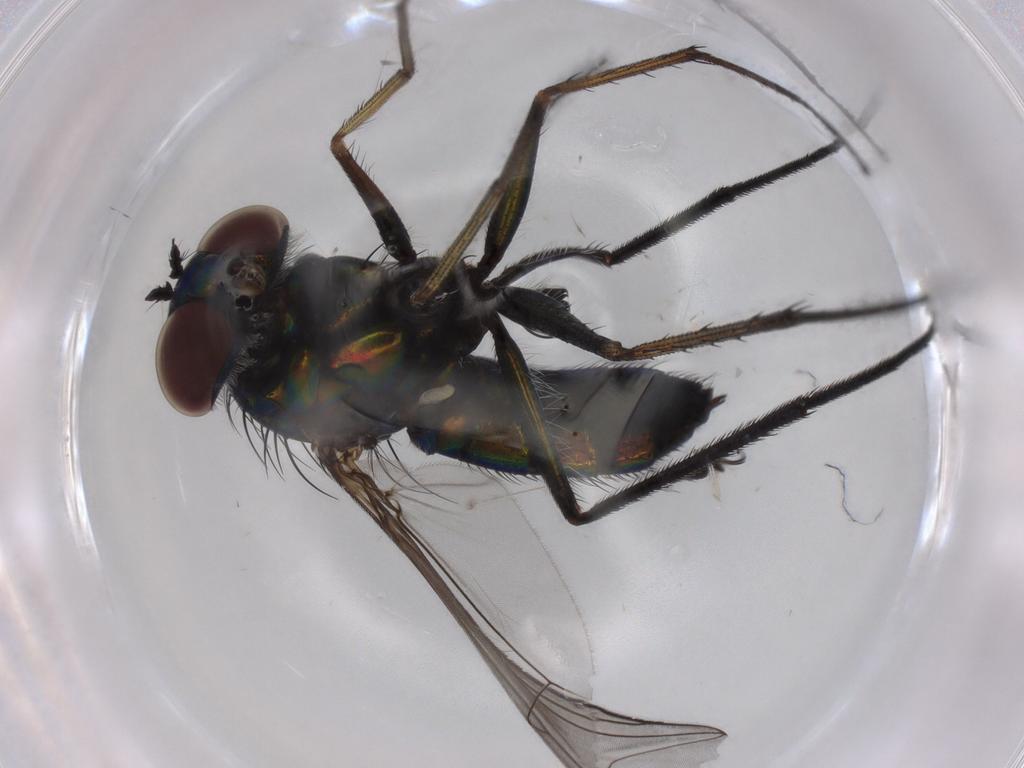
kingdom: Animalia
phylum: Arthropoda
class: Insecta
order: Diptera
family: Dolichopodidae
